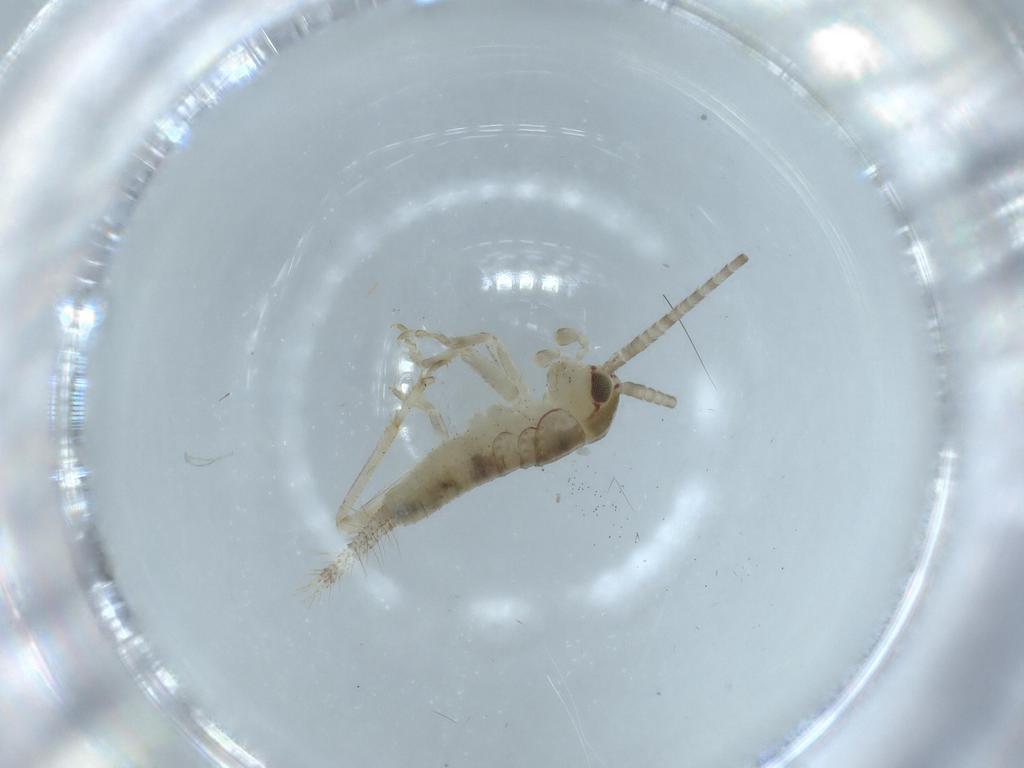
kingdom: Animalia
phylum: Arthropoda
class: Insecta
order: Orthoptera
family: Gryllidae
